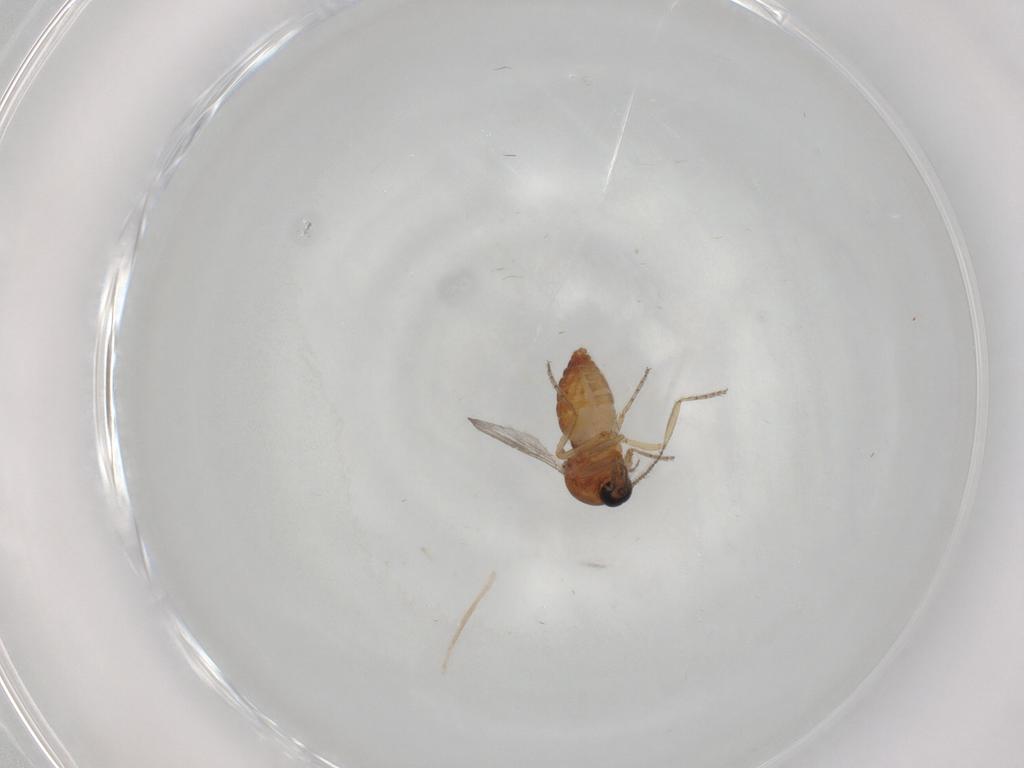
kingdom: Animalia
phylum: Arthropoda
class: Insecta
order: Diptera
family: Ceratopogonidae
